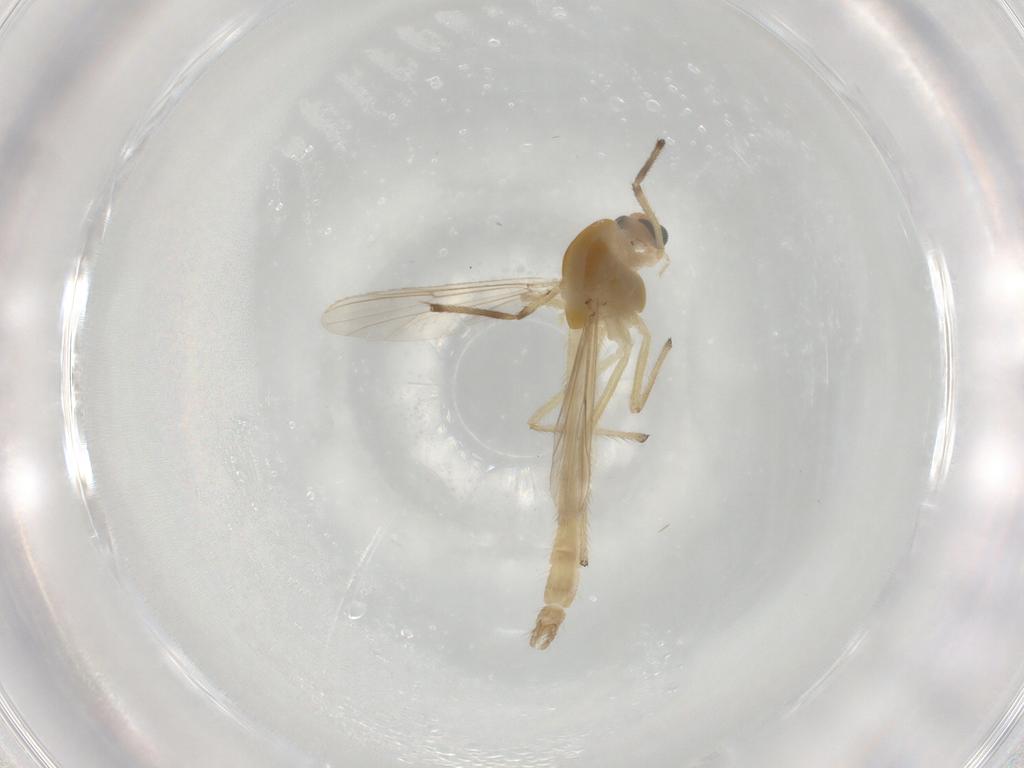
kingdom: Animalia
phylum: Arthropoda
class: Insecta
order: Diptera
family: Chironomidae
